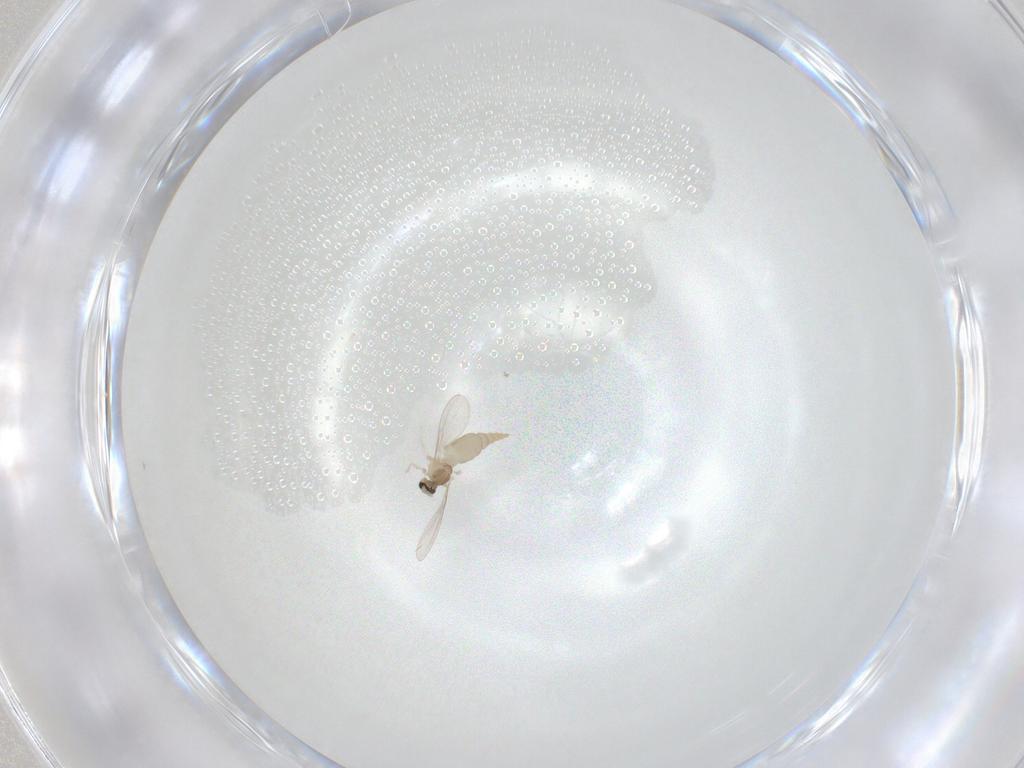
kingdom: Animalia
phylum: Arthropoda
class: Insecta
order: Diptera
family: Cecidomyiidae
